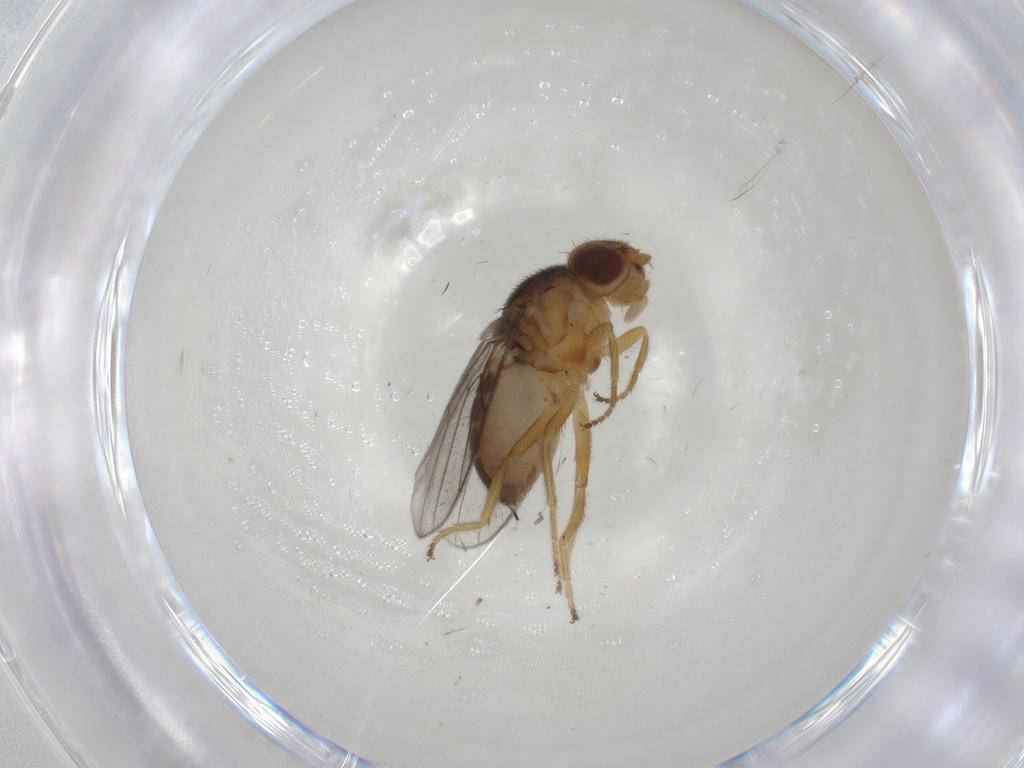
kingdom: Animalia
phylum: Arthropoda
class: Insecta
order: Diptera
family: Chloropidae
